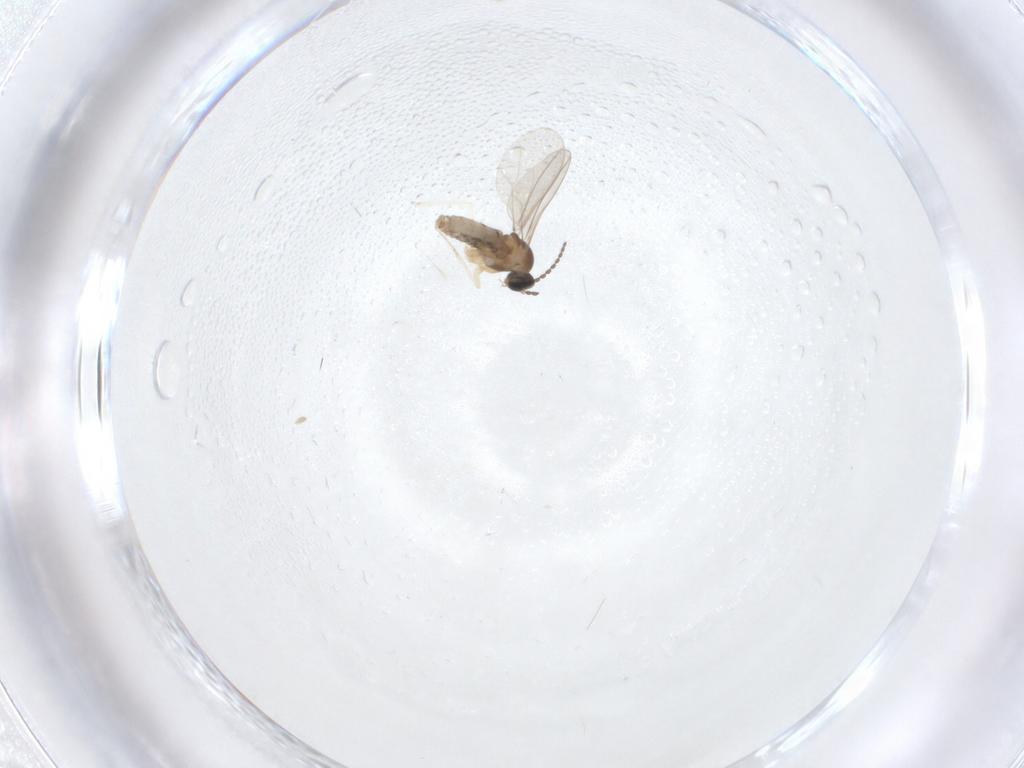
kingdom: Animalia
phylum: Arthropoda
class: Insecta
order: Diptera
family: Cecidomyiidae
